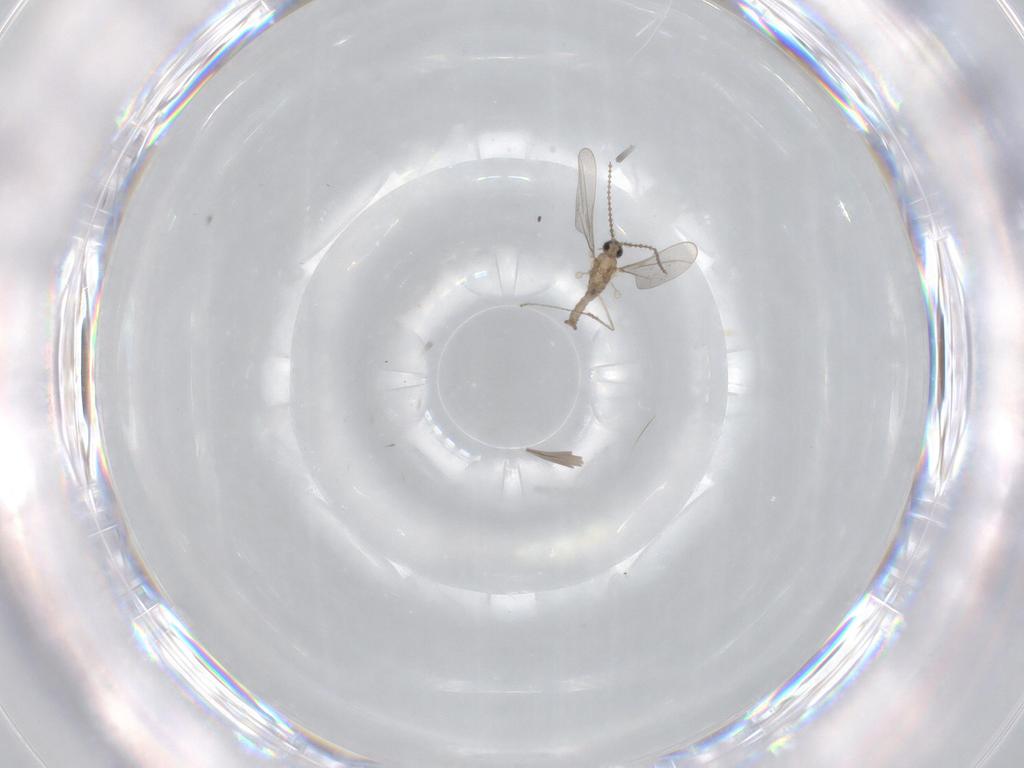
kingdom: Animalia
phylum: Arthropoda
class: Insecta
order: Diptera
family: Cecidomyiidae
